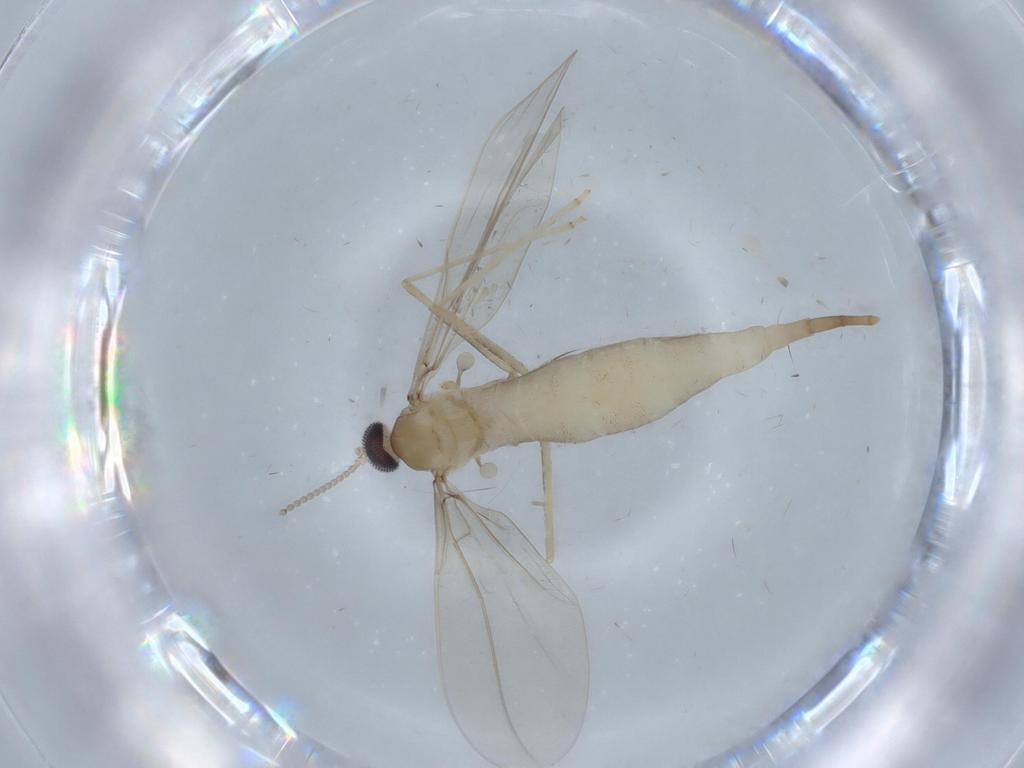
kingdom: Animalia
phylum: Arthropoda
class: Insecta
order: Diptera
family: Cecidomyiidae
